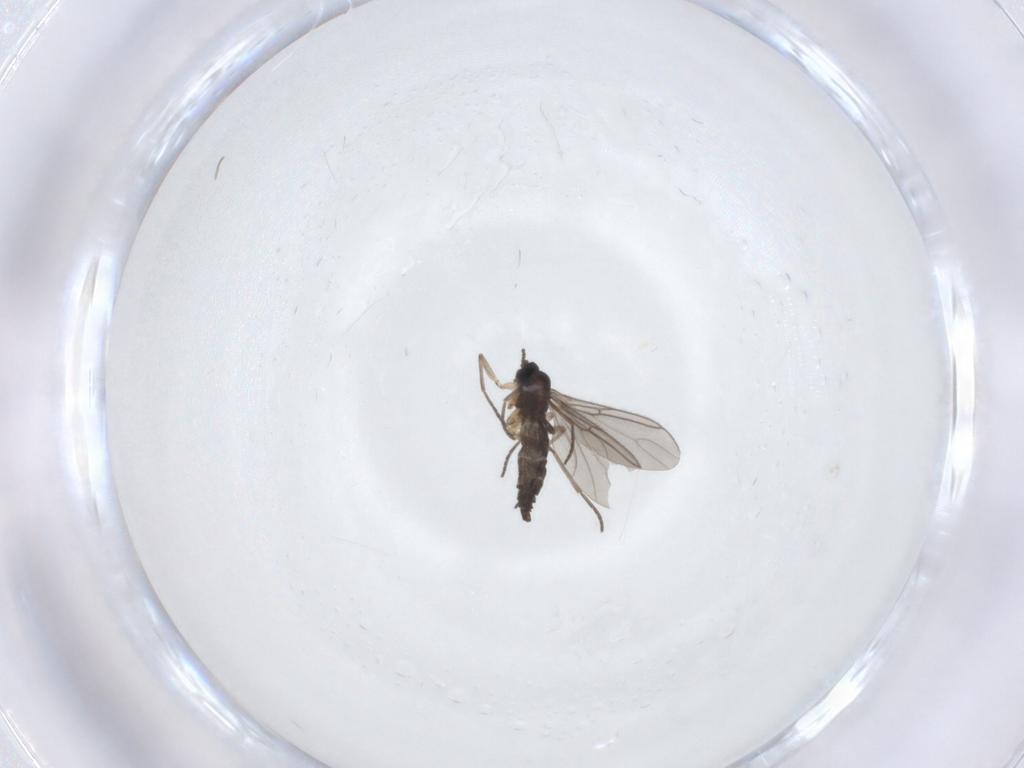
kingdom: Animalia
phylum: Arthropoda
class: Insecta
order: Diptera
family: Sciaridae
